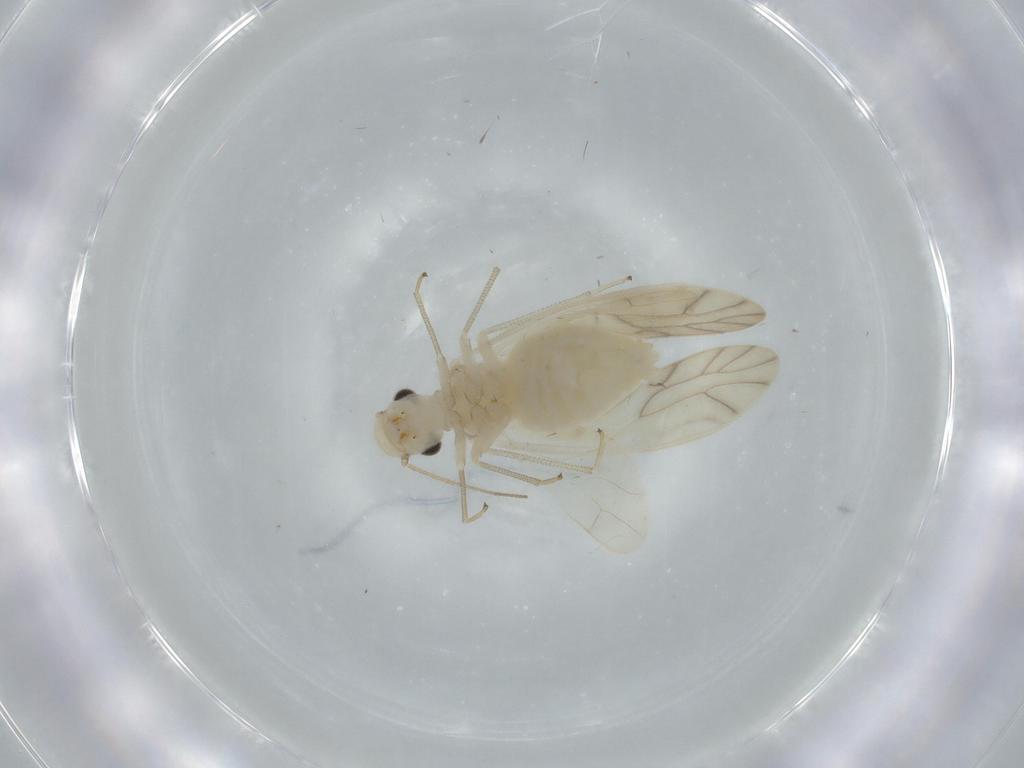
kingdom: Animalia
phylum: Arthropoda
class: Insecta
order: Psocodea
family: Caeciliusidae
